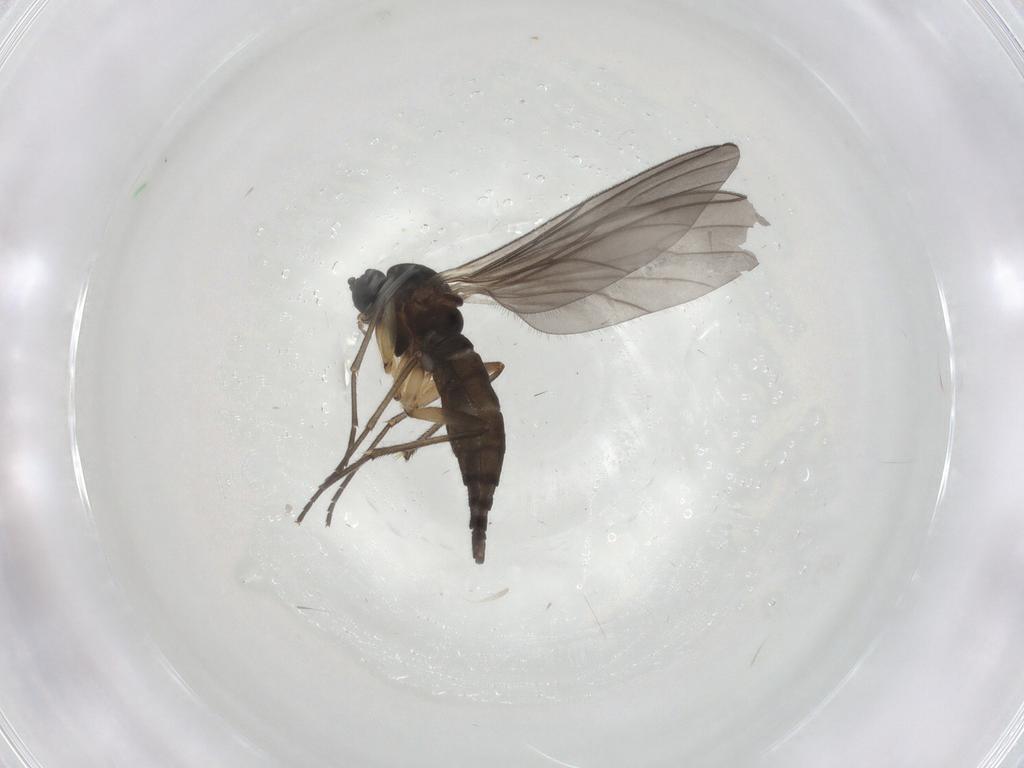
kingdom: Animalia
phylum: Arthropoda
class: Insecta
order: Diptera
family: Sciaridae
